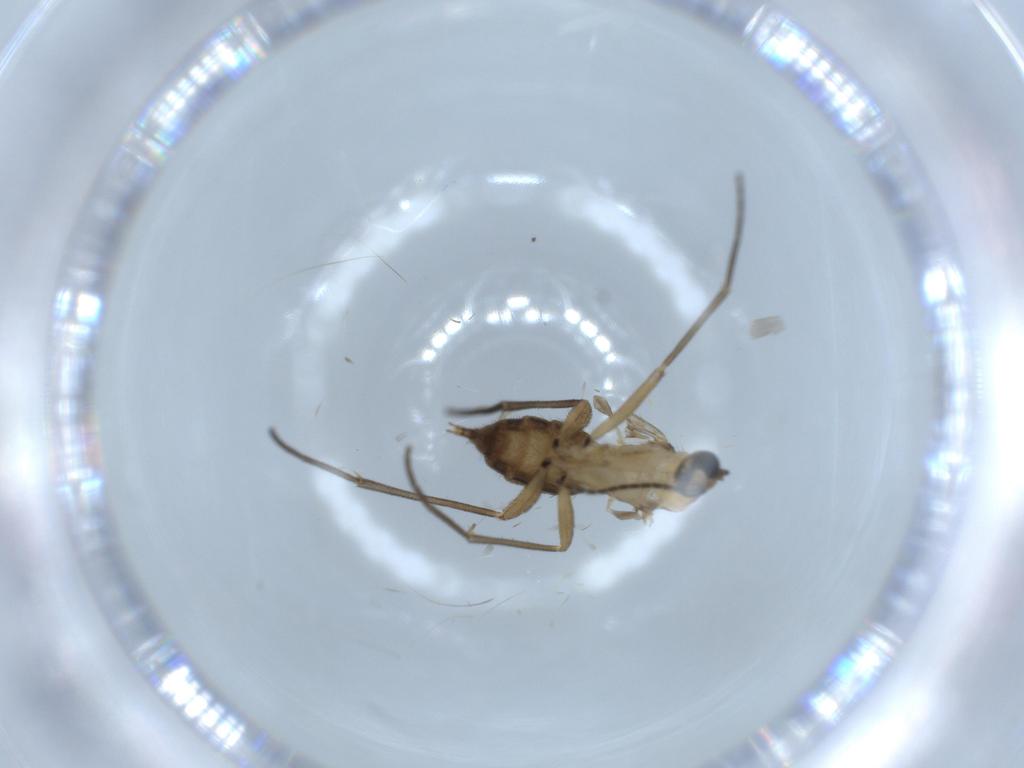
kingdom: Animalia
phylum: Arthropoda
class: Insecta
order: Diptera
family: Sciaridae
